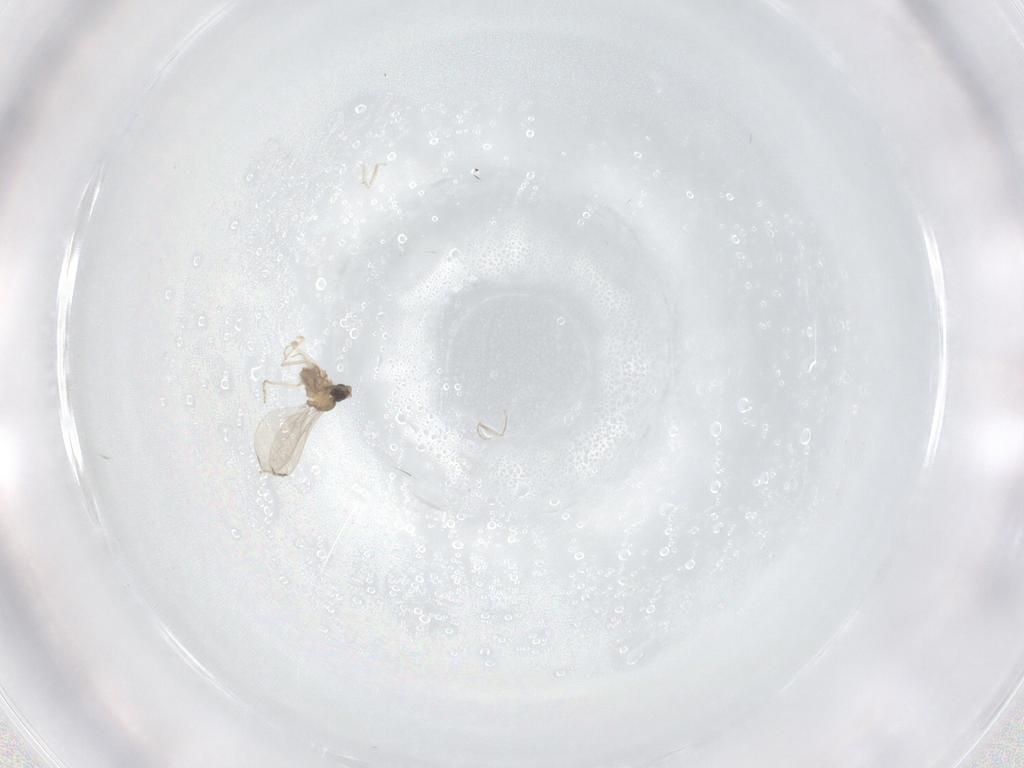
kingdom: Animalia
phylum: Arthropoda
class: Insecta
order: Diptera
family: Cecidomyiidae
